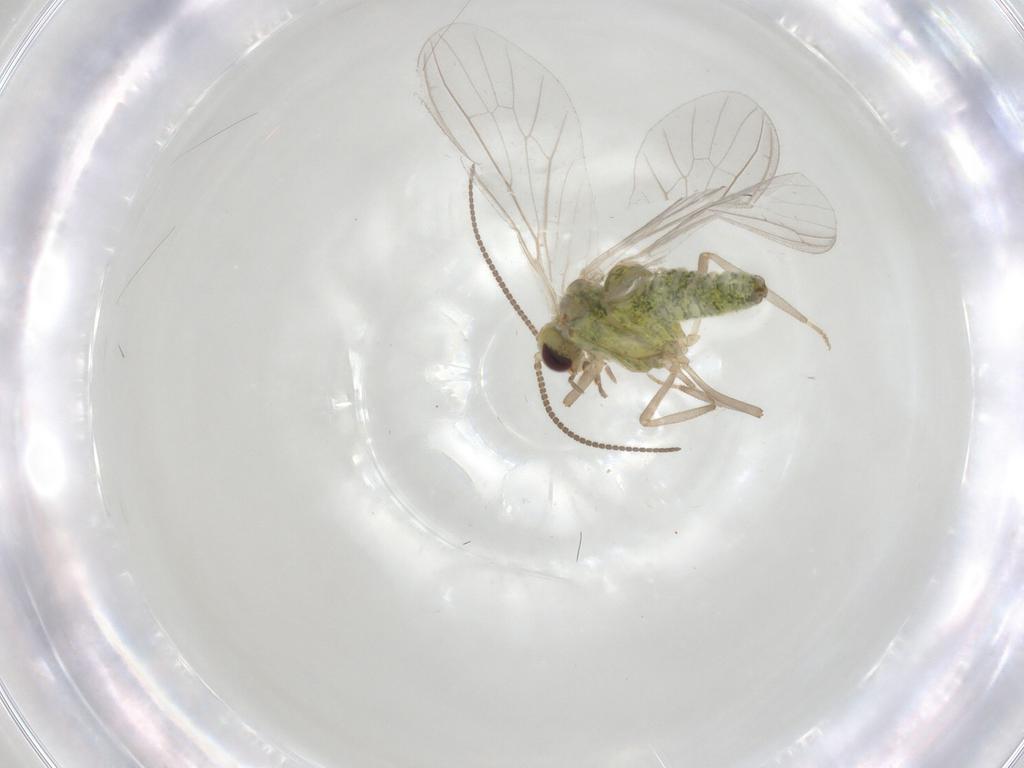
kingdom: Animalia
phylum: Arthropoda
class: Insecta
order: Neuroptera
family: Coniopterygidae
